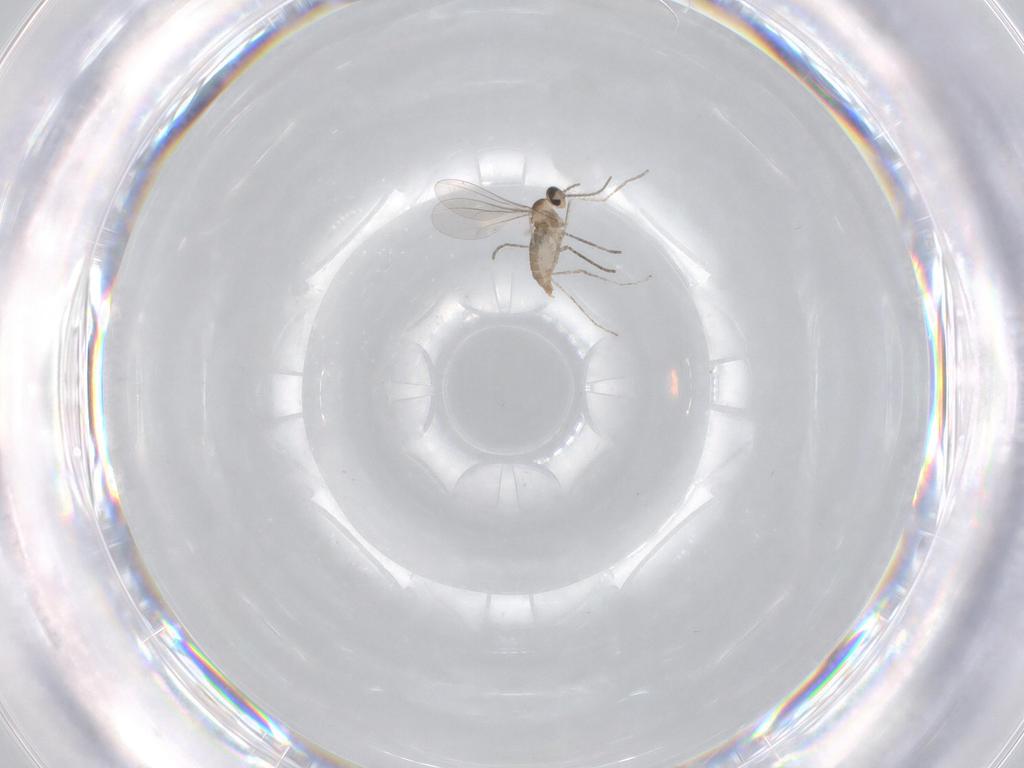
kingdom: Animalia
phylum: Arthropoda
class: Insecta
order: Diptera
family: Cecidomyiidae
